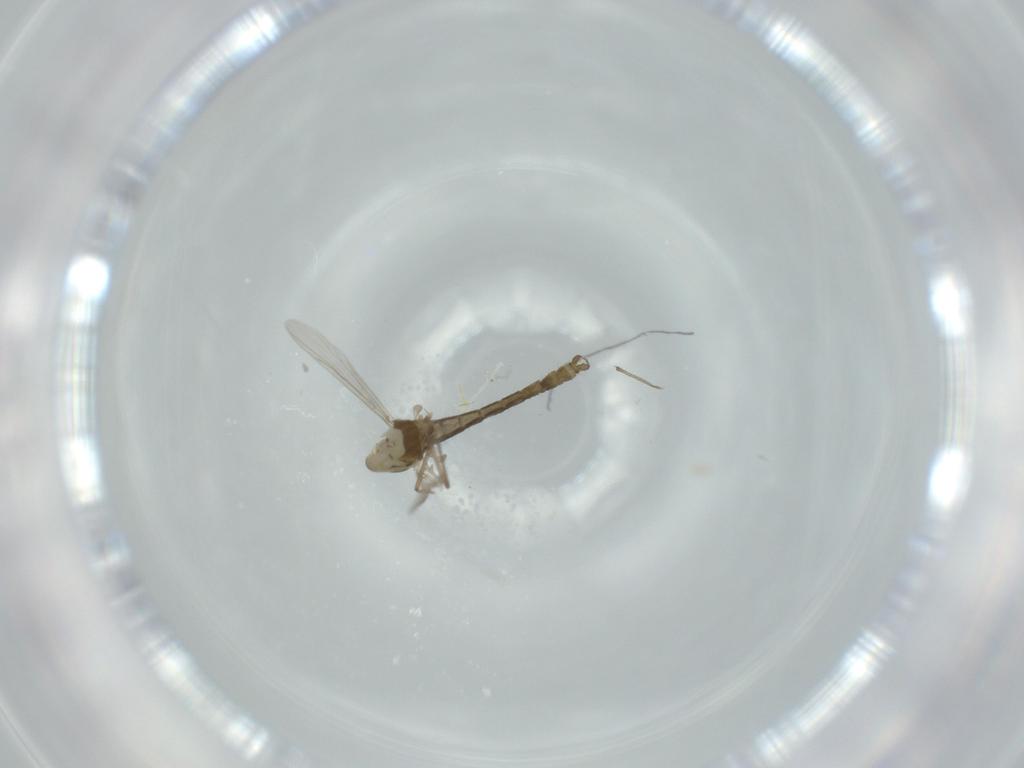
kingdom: Animalia
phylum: Arthropoda
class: Insecta
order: Diptera
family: Chironomidae
